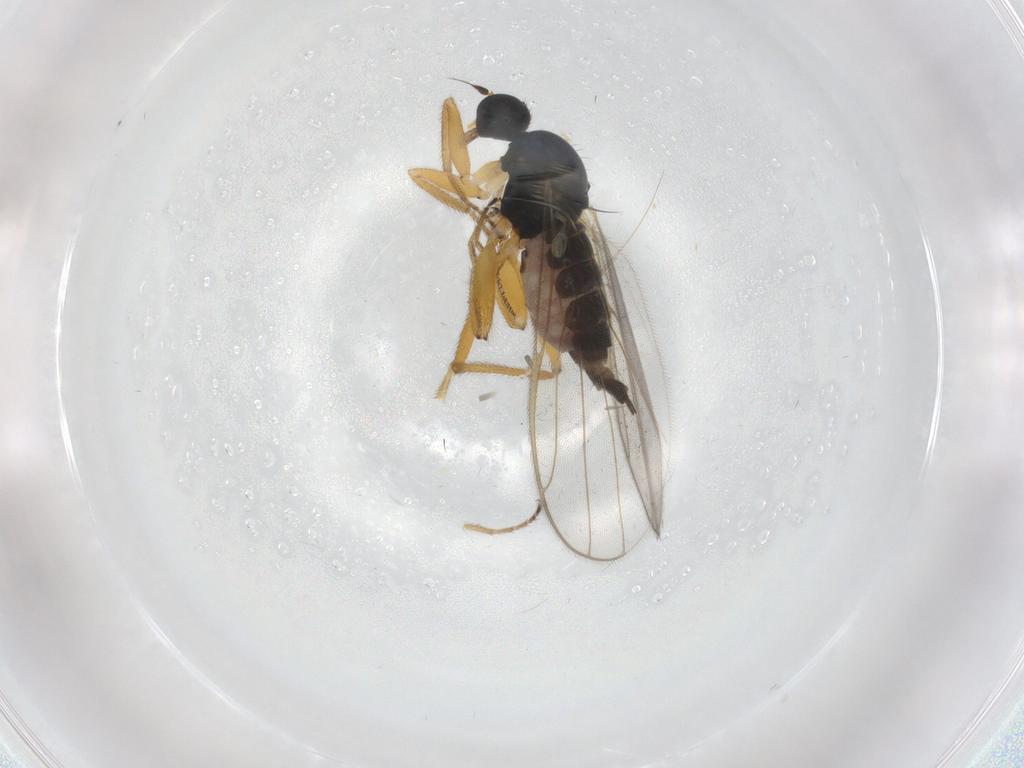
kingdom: Animalia
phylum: Arthropoda
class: Insecta
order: Diptera
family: Hybotidae
